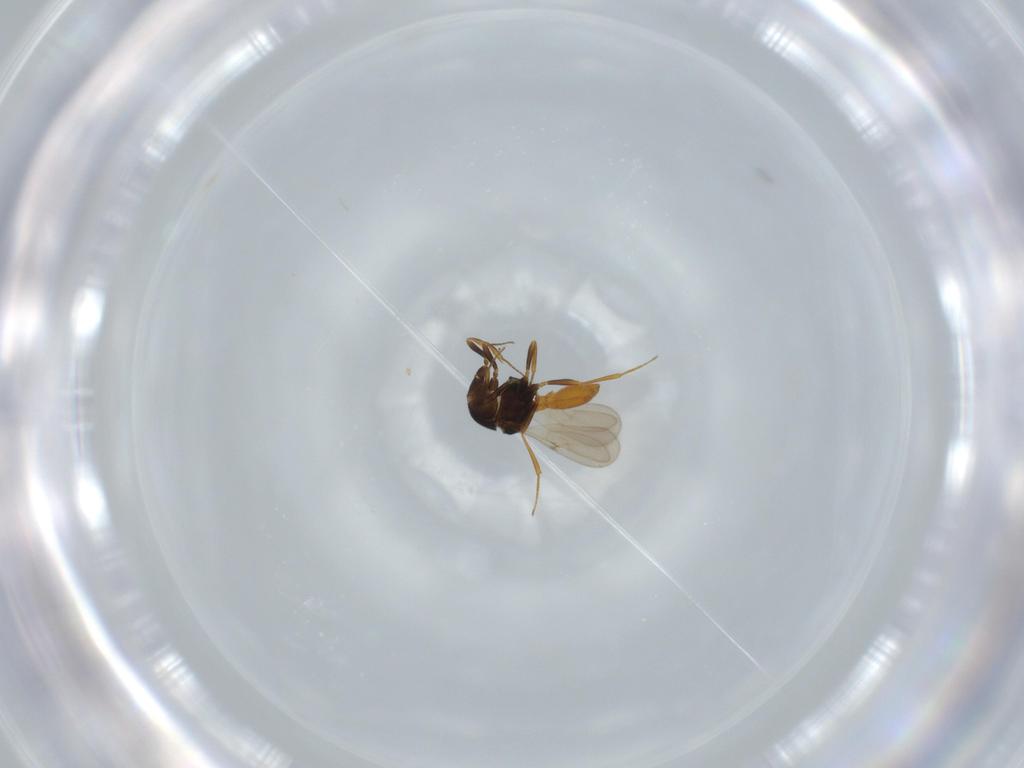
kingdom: Animalia
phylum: Arthropoda
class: Insecta
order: Hymenoptera
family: Scelionidae
